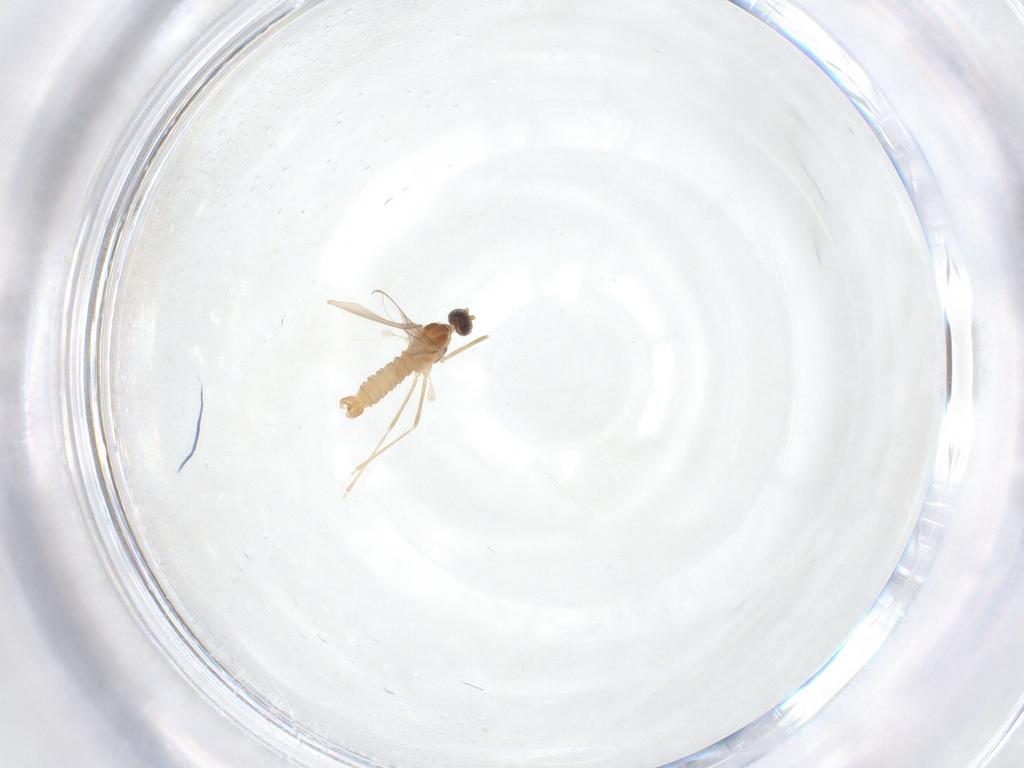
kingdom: Animalia
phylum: Arthropoda
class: Insecta
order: Diptera
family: Cecidomyiidae
